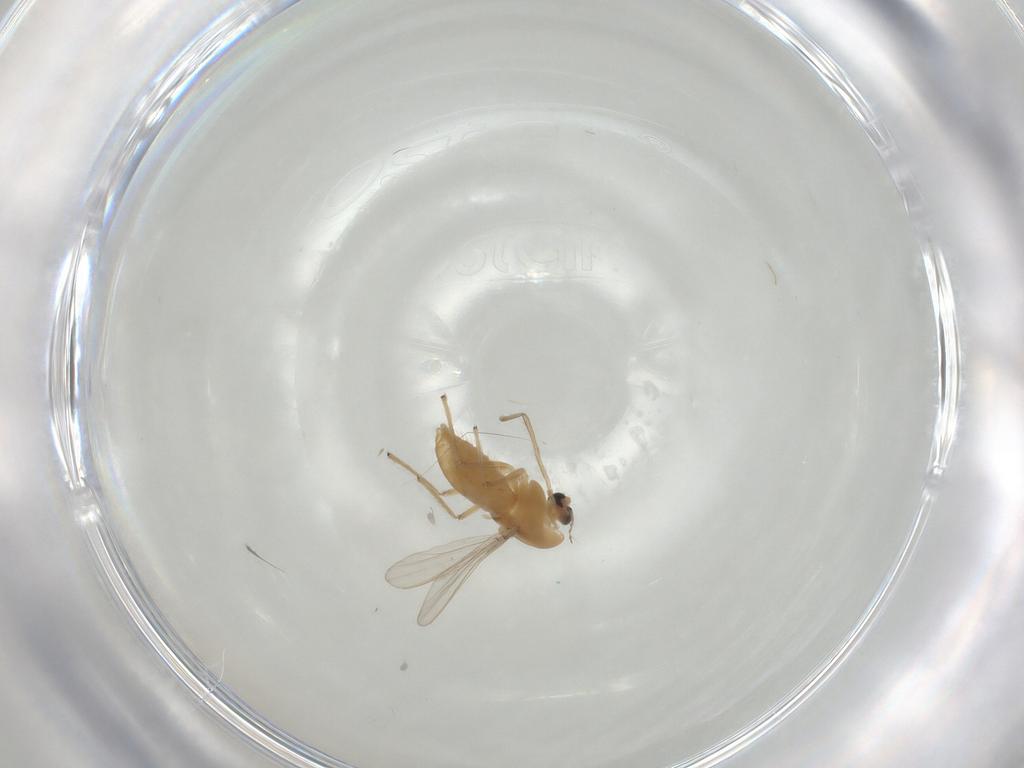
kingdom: Animalia
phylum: Arthropoda
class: Insecta
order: Diptera
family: Chironomidae
